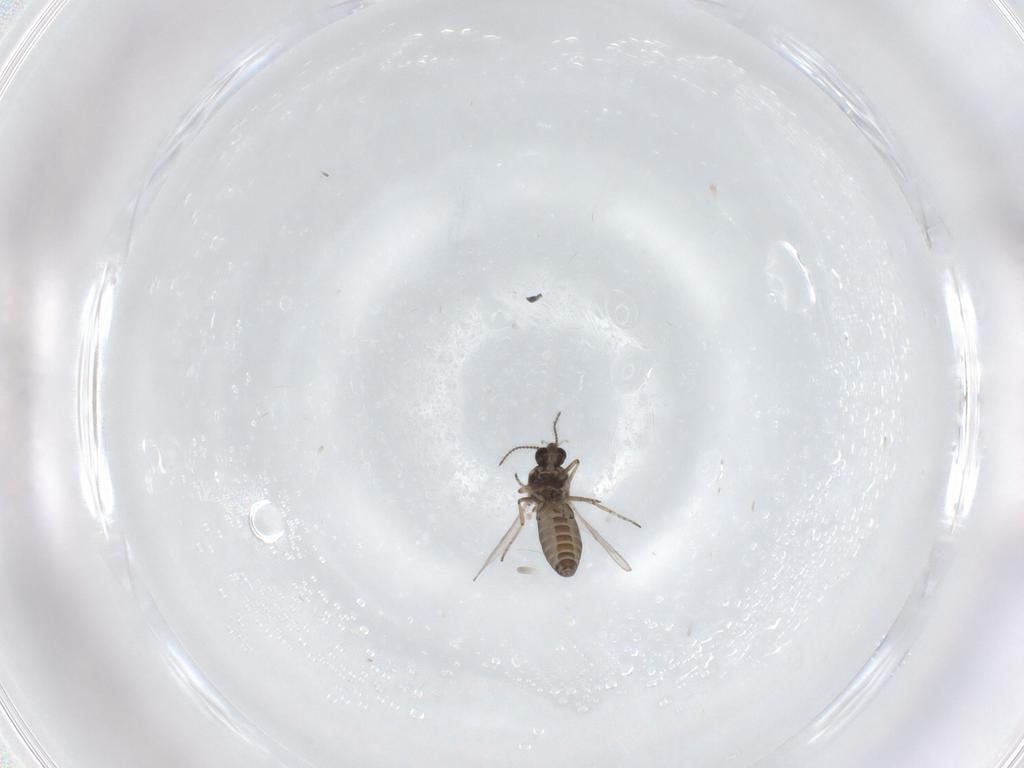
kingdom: Animalia
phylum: Arthropoda
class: Insecta
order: Diptera
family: Ceratopogonidae
